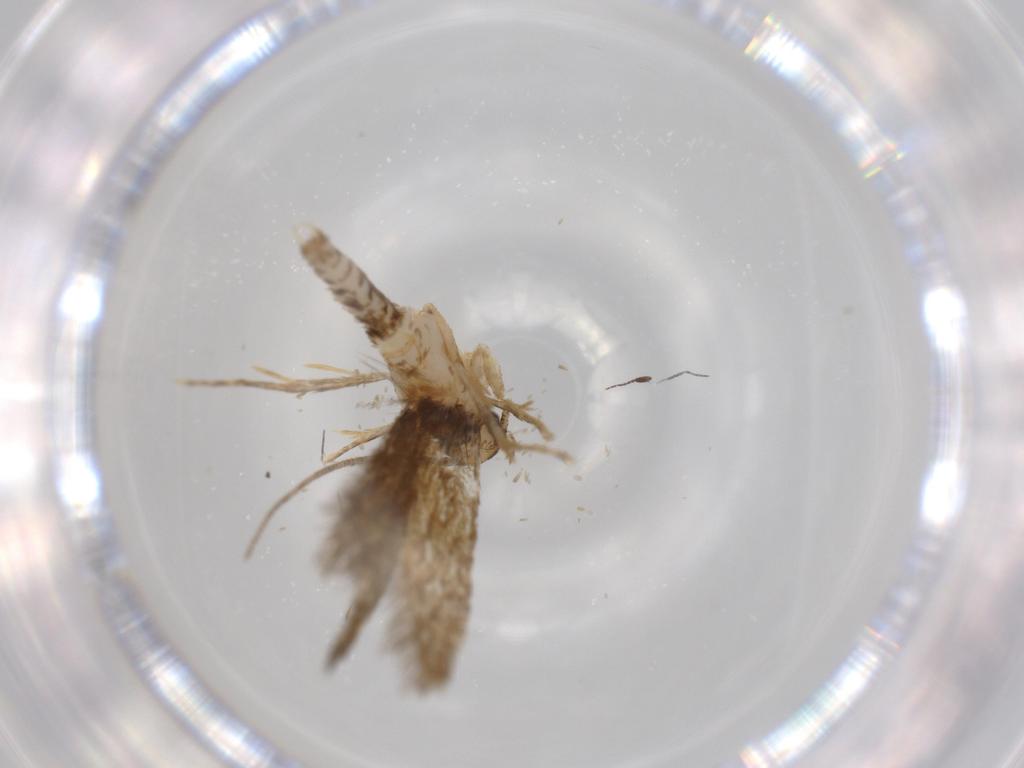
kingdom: Animalia
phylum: Arthropoda
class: Insecta
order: Lepidoptera
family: Tineidae
